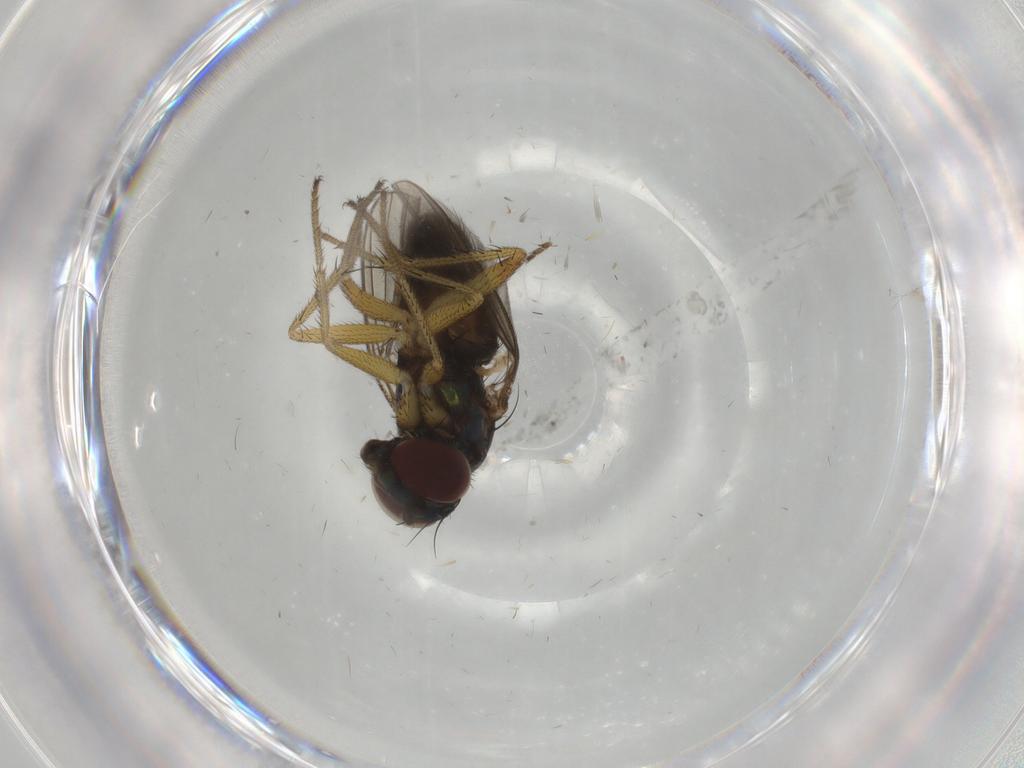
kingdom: Animalia
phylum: Arthropoda
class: Insecta
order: Diptera
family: Dolichopodidae
